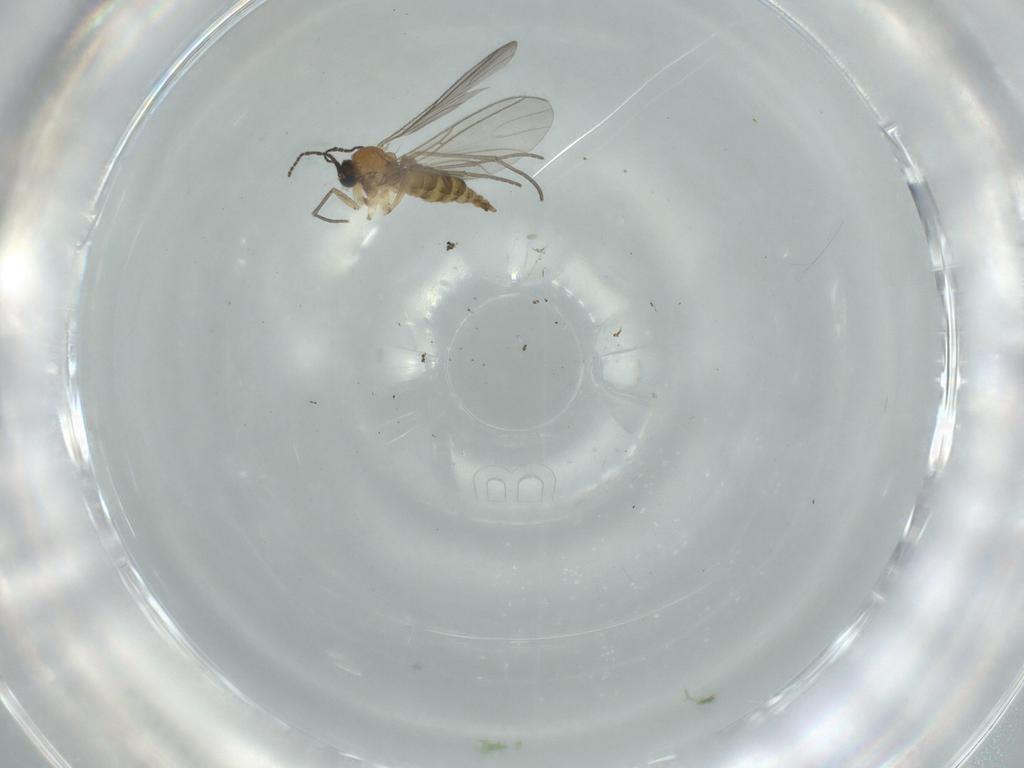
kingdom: Animalia
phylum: Arthropoda
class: Insecta
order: Diptera
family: Sciaridae
